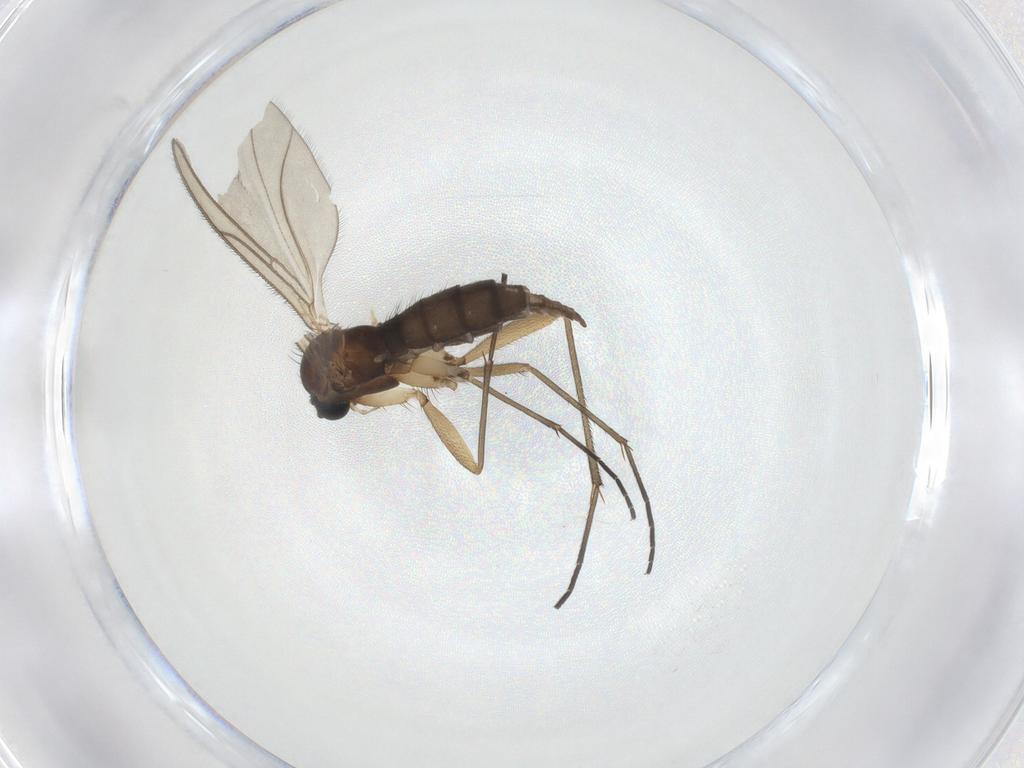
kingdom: Animalia
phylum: Arthropoda
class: Insecta
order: Diptera
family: Sciaridae
